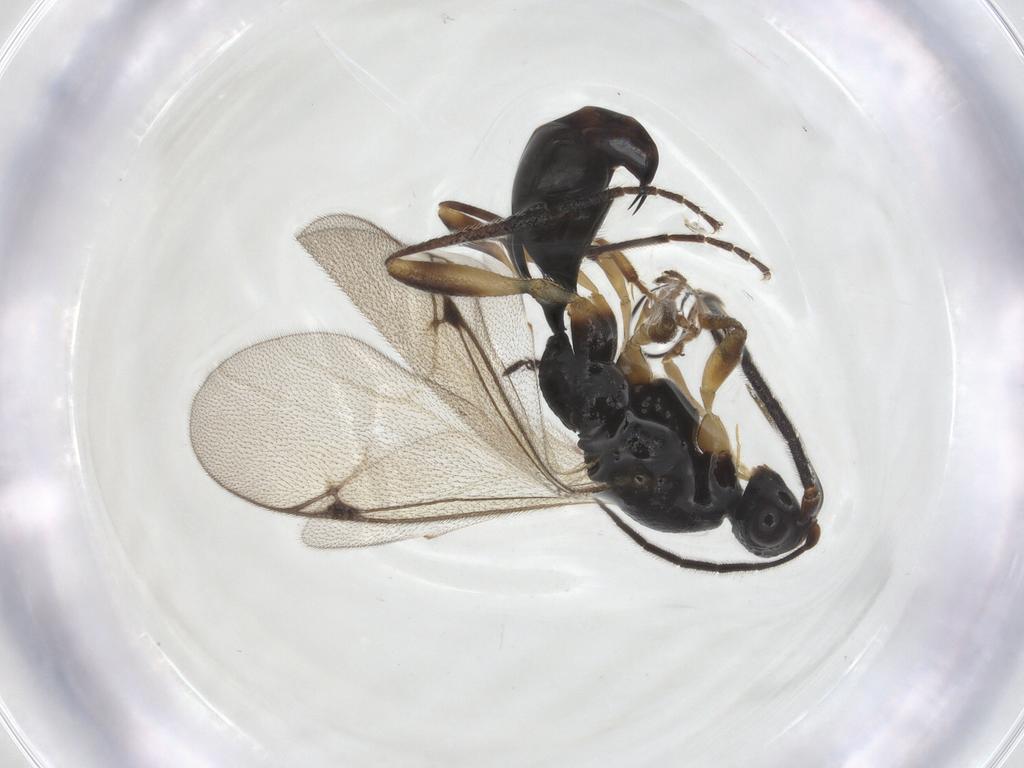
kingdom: Animalia
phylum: Arthropoda
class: Insecta
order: Hymenoptera
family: Proctotrupidae
